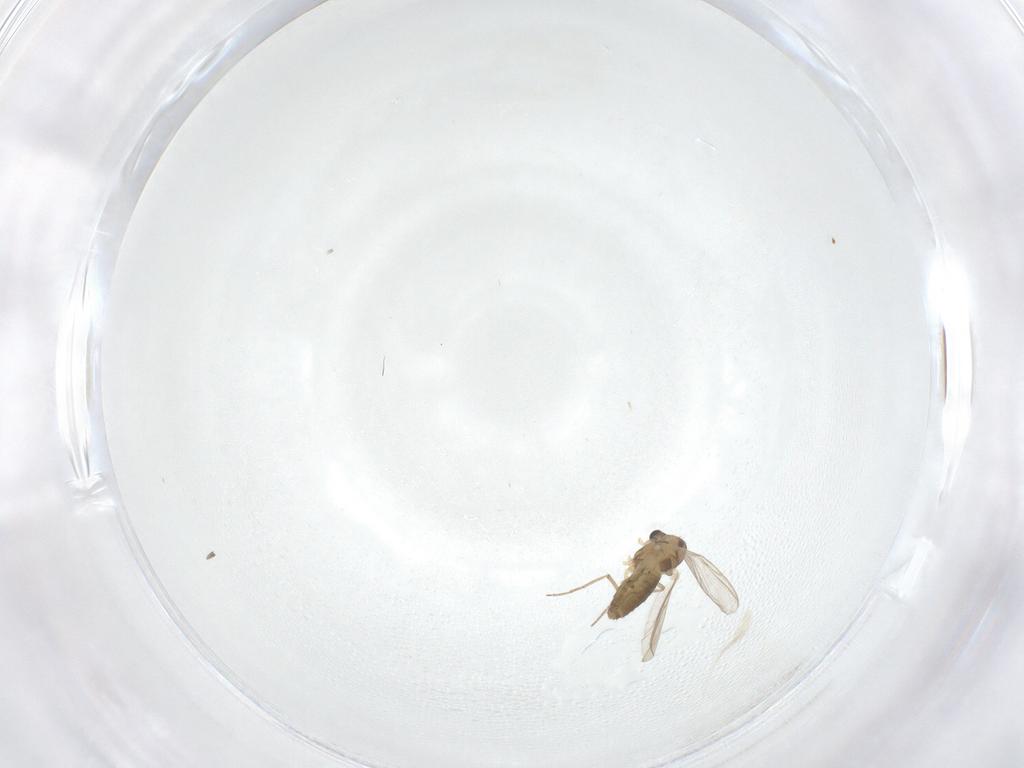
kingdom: Animalia
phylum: Arthropoda
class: Insecta
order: Diptera
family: Chironomidae
